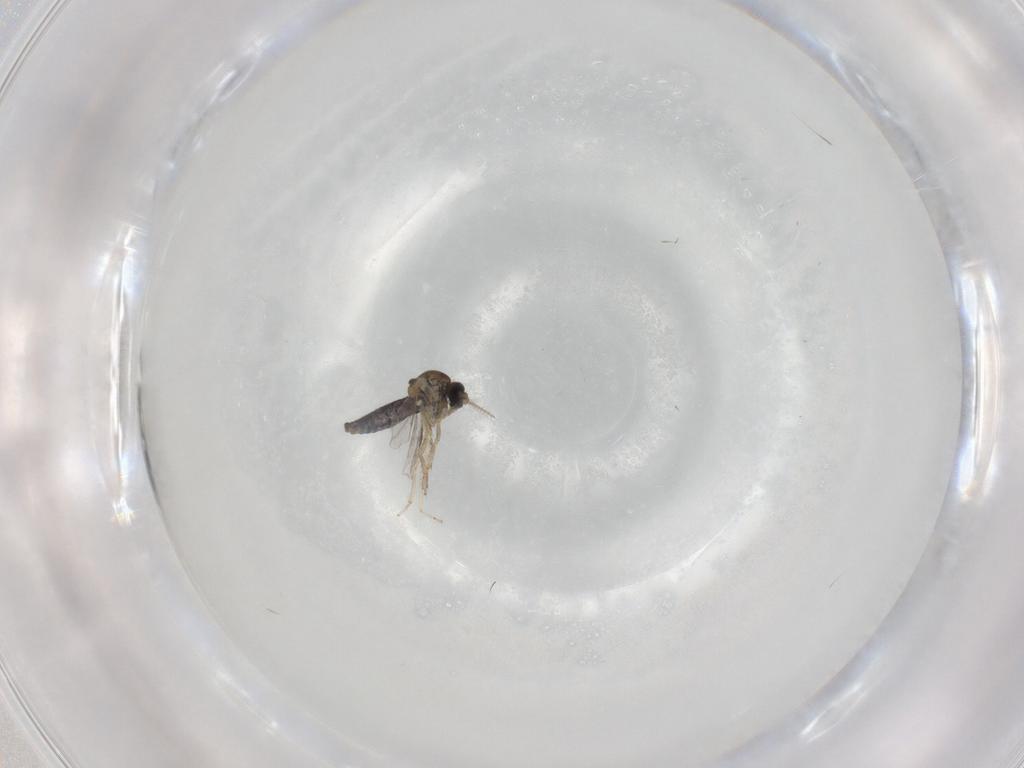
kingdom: Animalia
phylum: Arthropoda
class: Insecta
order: Diptera
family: Ceratopogonidae
